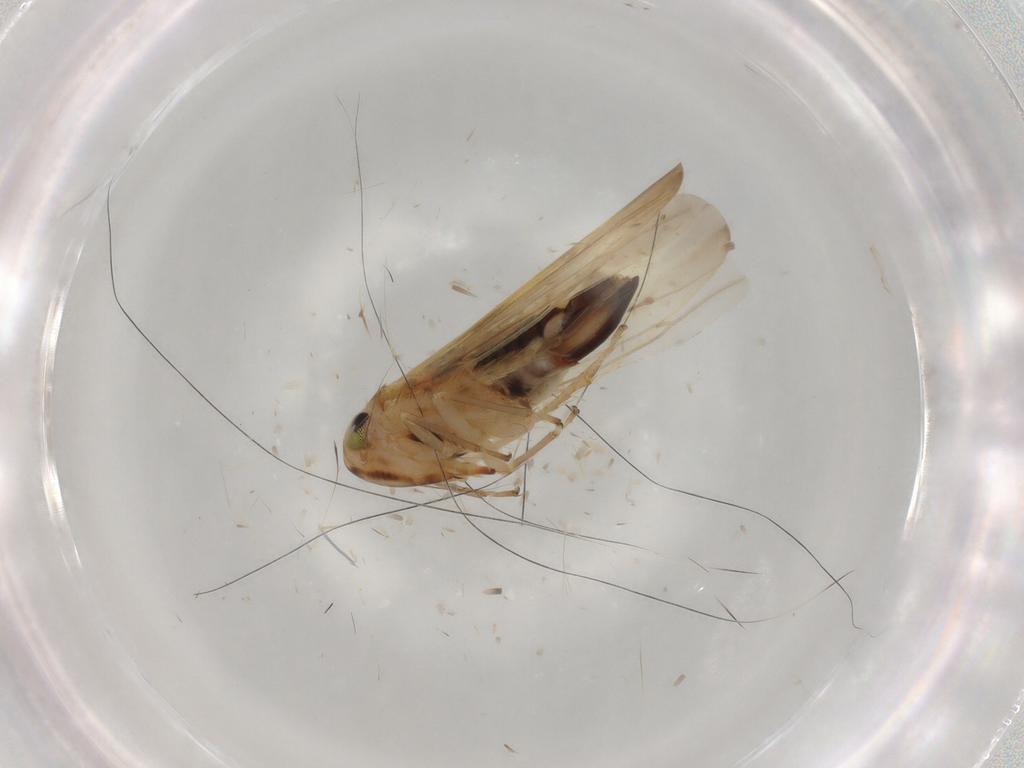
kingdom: Animalia
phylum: Arthropoda
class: Insecta
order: Hemiptera
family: Cicadellidae
